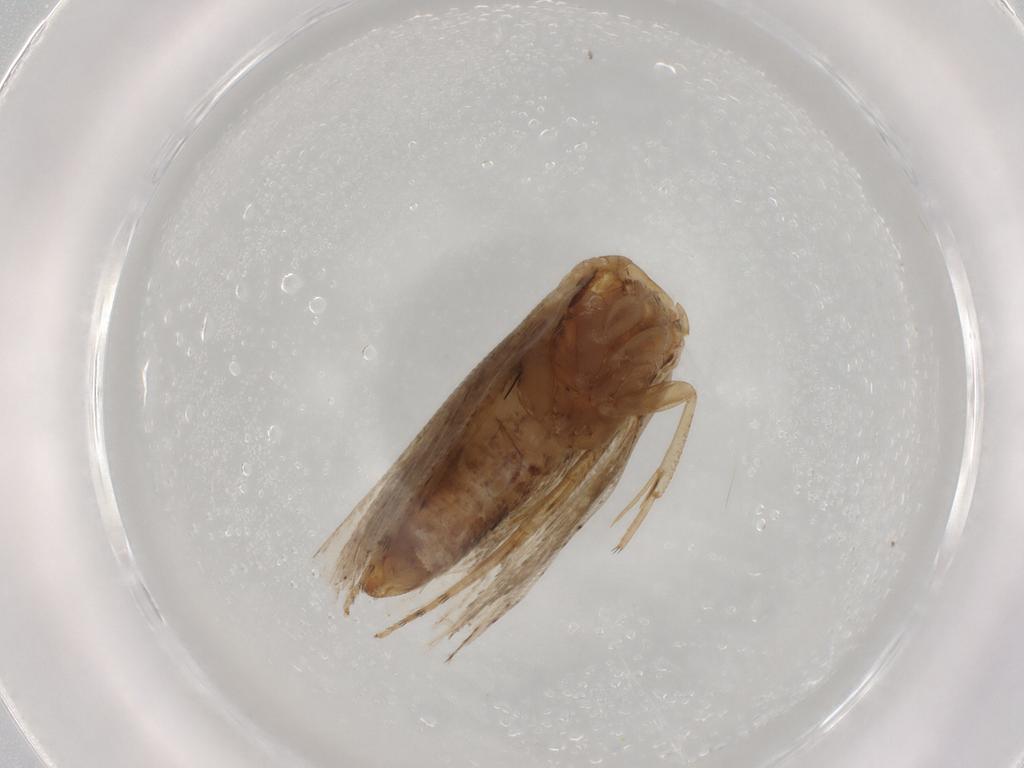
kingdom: Animalia
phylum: Arthropoda
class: Insecta
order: Lepidoptera
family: Tortricidae
